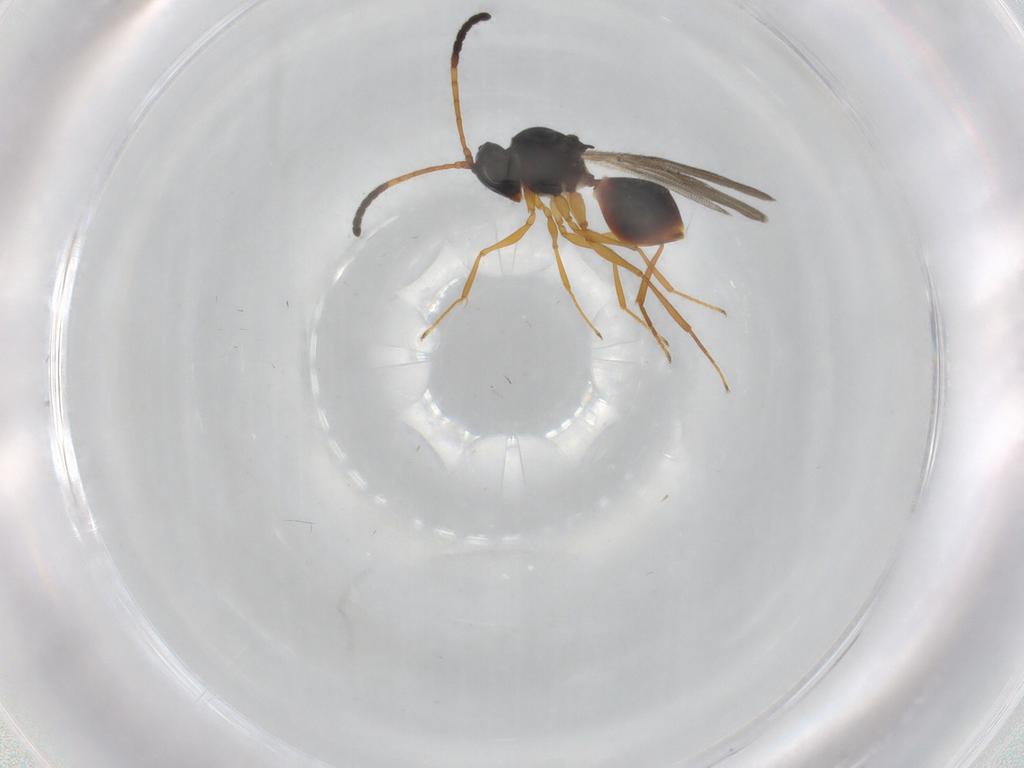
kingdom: Animalia
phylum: Arthropoda
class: Insecta
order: Hymenoptera
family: Figitidae
